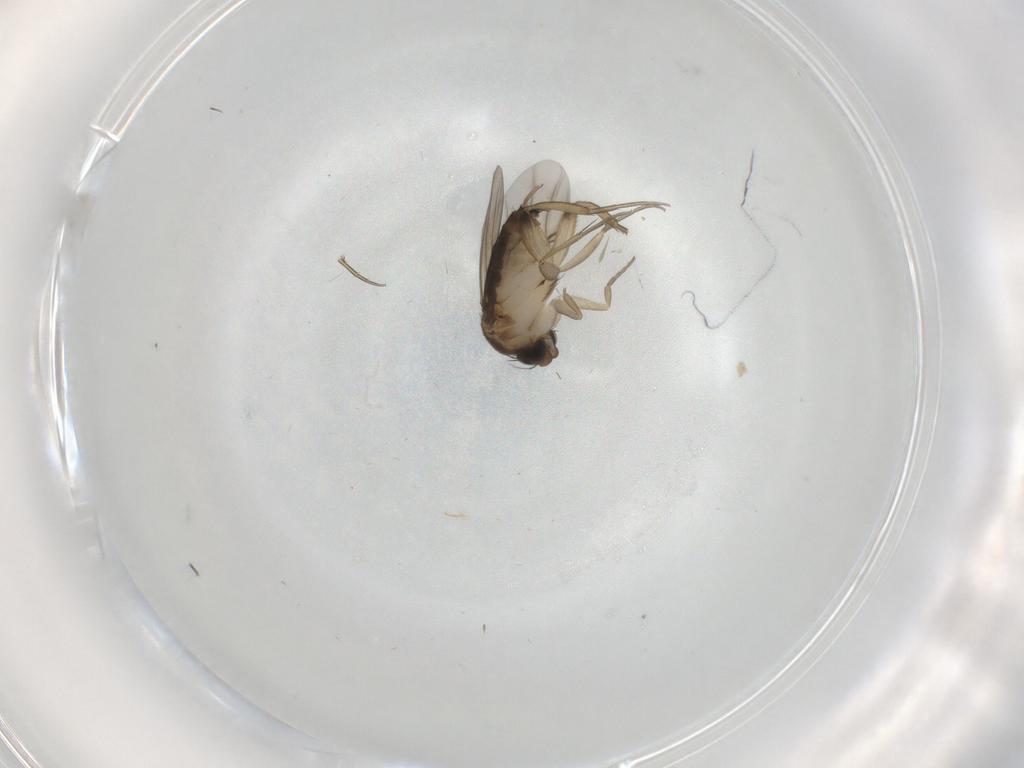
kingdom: Animalia
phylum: Arthropoda
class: Insecta
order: Diptera
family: Phoridae
